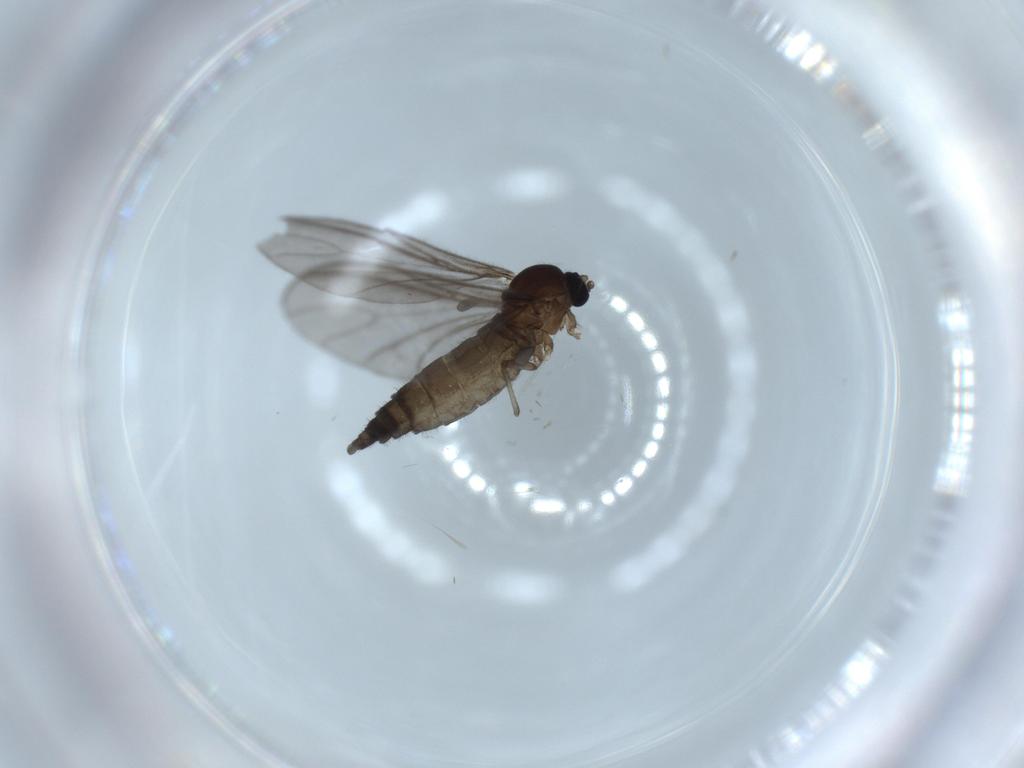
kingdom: Animalia
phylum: Arthropoda
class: Insecta
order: Diptera
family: Sciaridae
